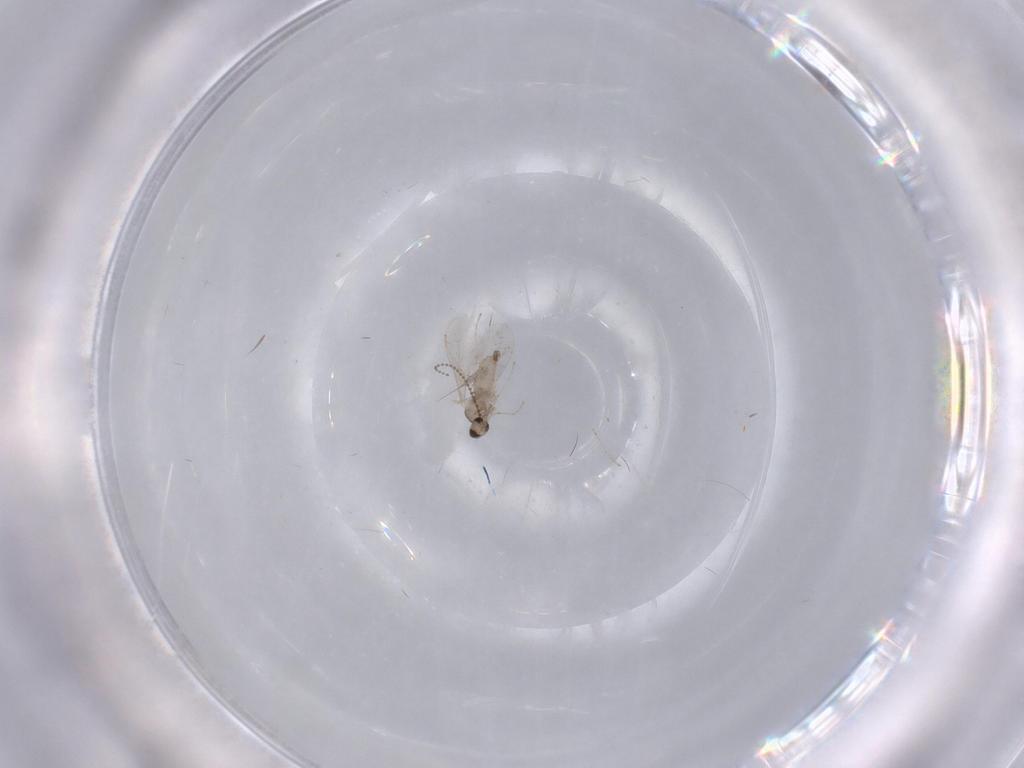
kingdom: Animalia
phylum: Arthropoda
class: Insecta
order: Diptera
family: Cecidomyiidae
